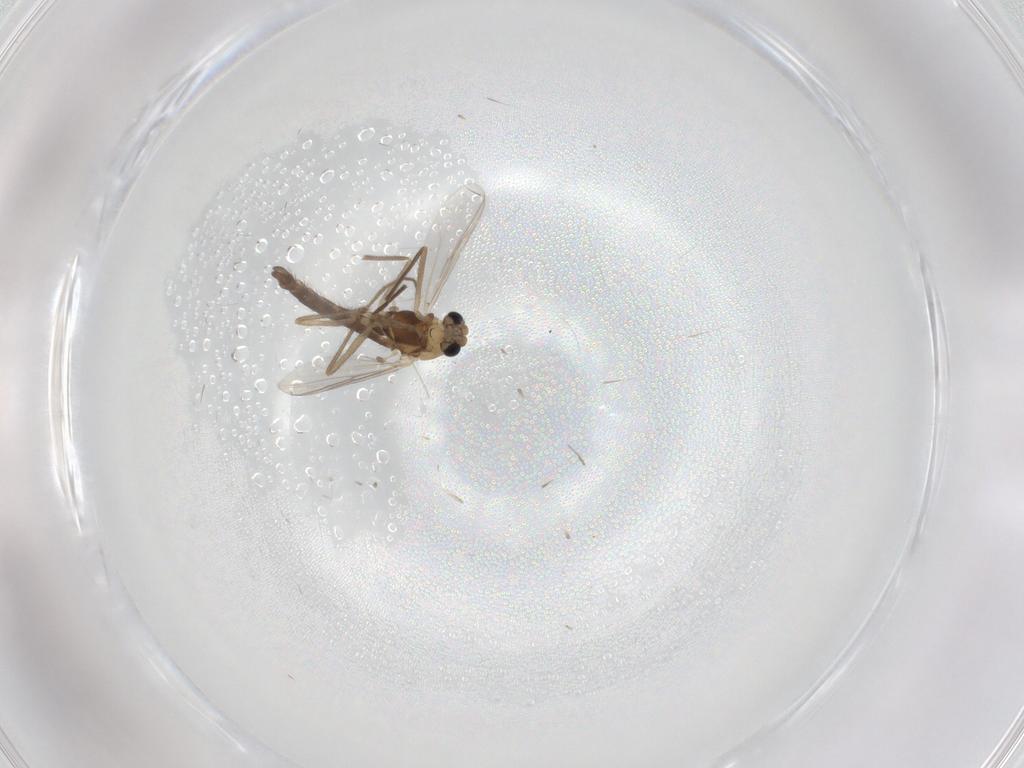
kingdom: Animalia
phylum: Arthropoda
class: Insecta
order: Diptera
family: Chironomidae
